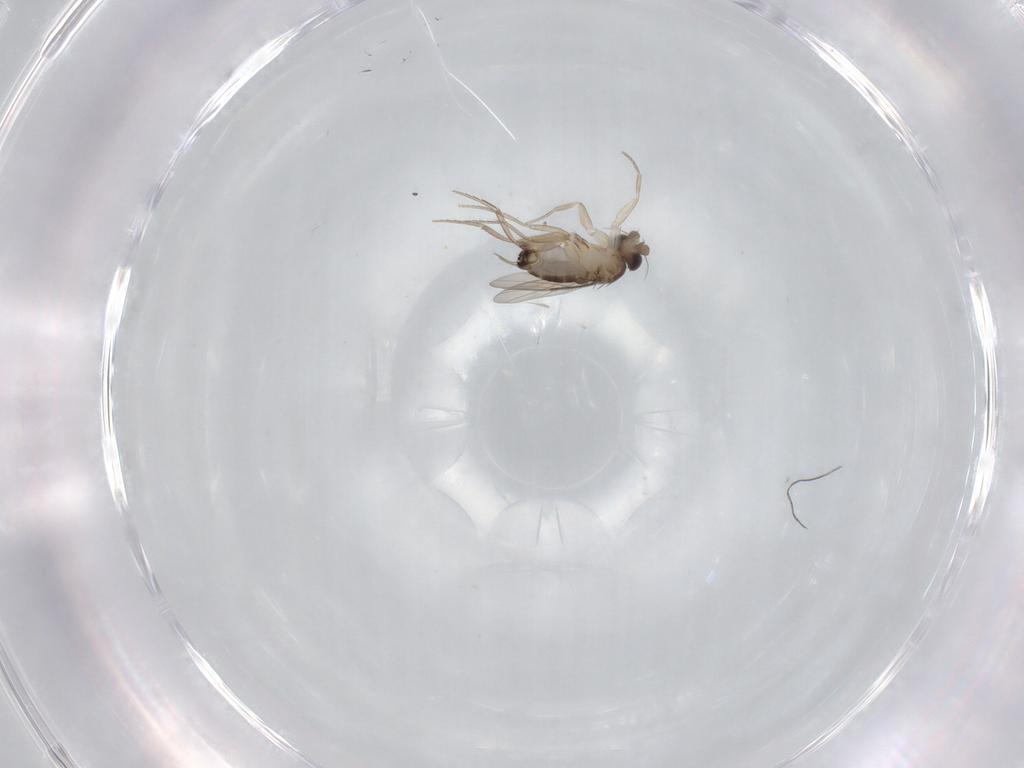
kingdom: Animalia
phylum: Arthropoda
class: Insecta
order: Diptera
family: Phoridae
